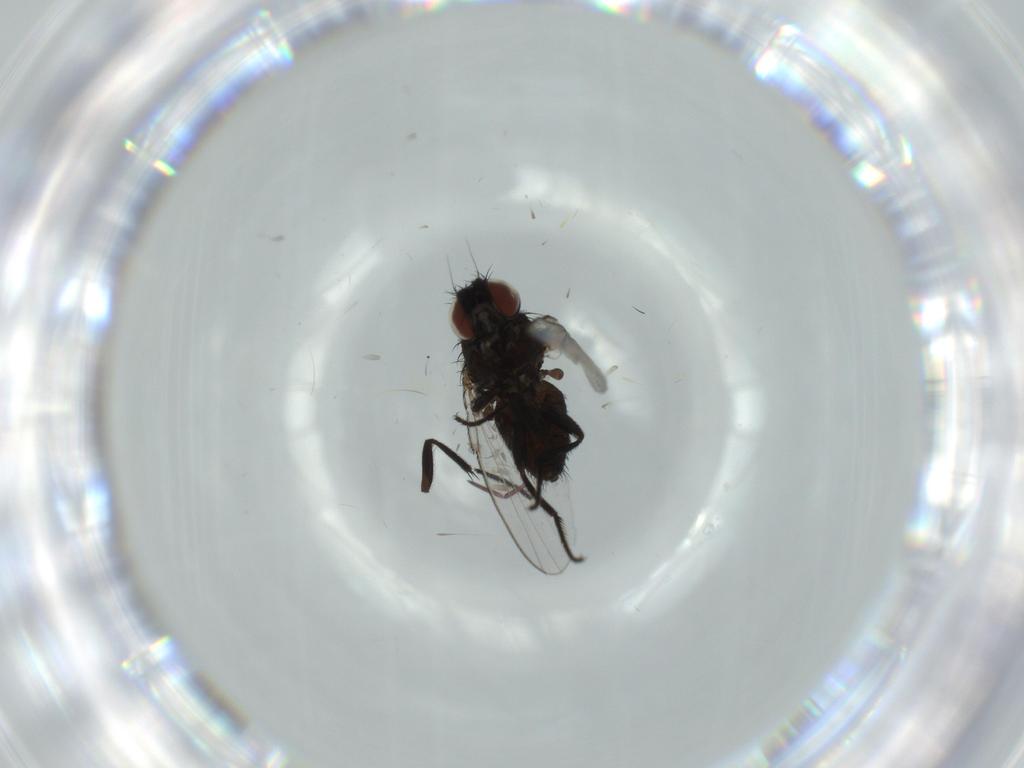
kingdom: Animalia
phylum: Arthropoda
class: Insecta
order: Diptera
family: Milichiidae
